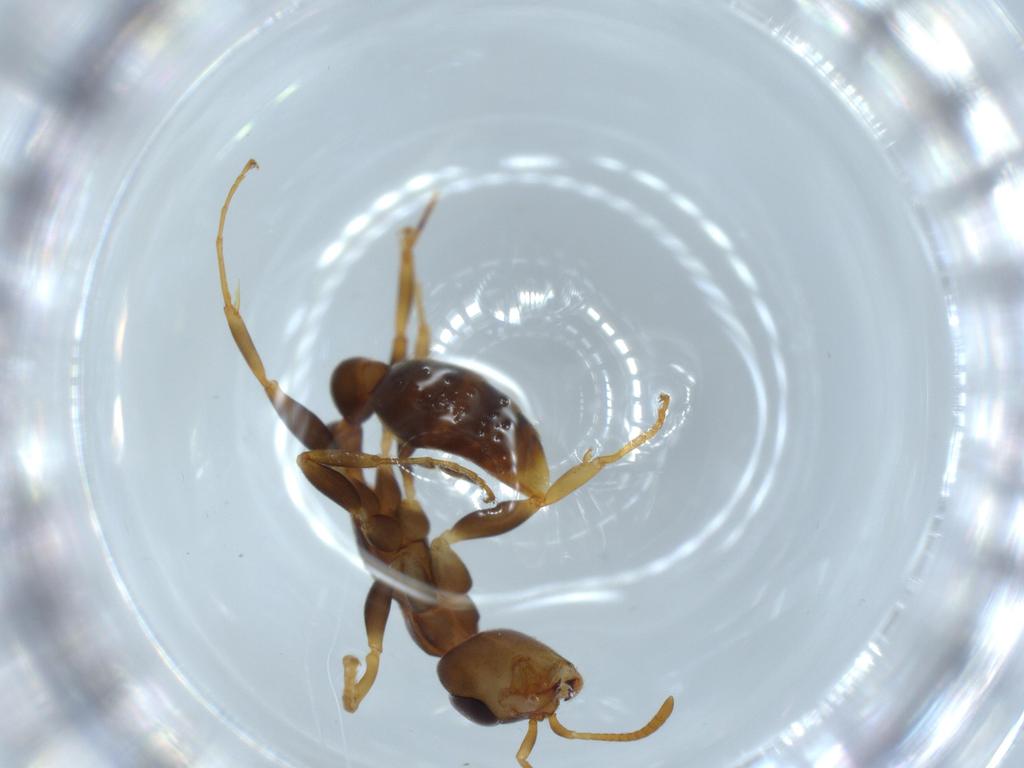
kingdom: Animalia
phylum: Arthropoda
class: Insecta
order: Hymenoptera
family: Formicidae
